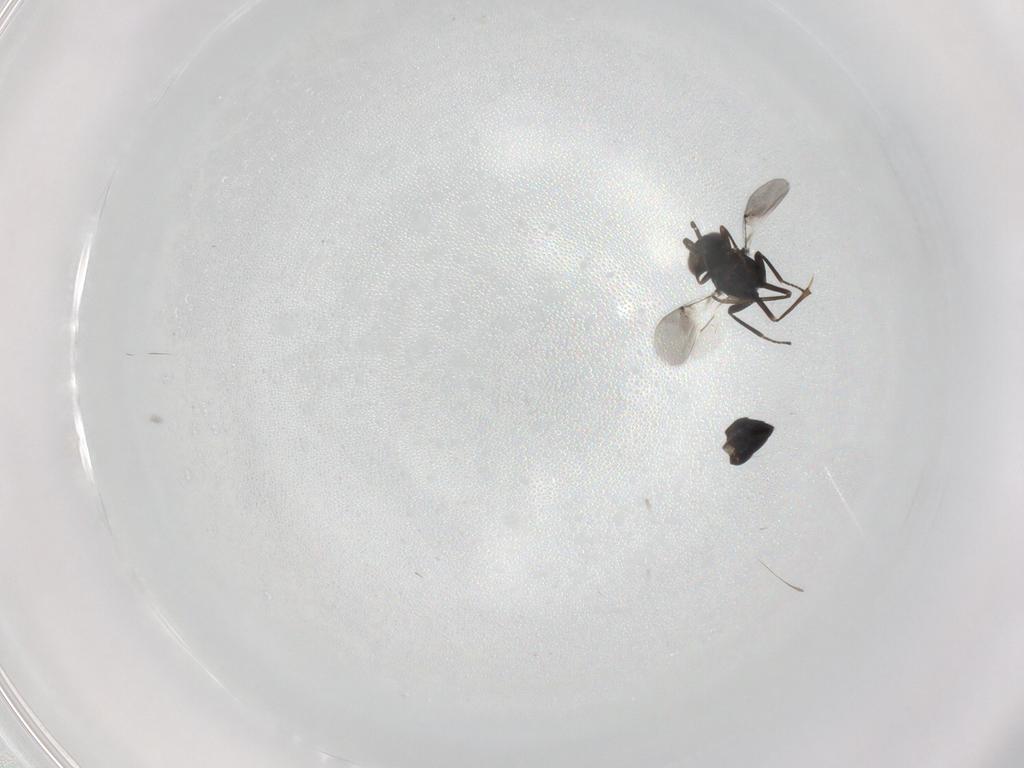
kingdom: Animalia
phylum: Arthropoda
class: Insecta
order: Hymenoptera
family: Encyrtidae
